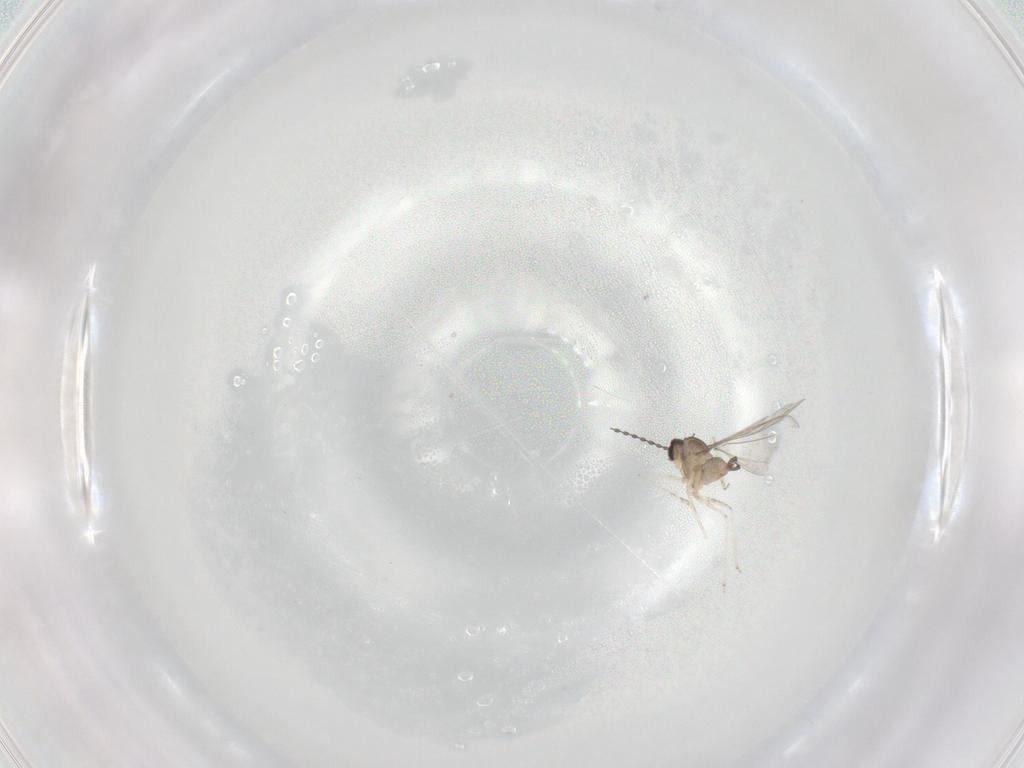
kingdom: Animalia
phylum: Arthropoda
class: Insecta
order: Diptera
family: Cecidomyiidae
